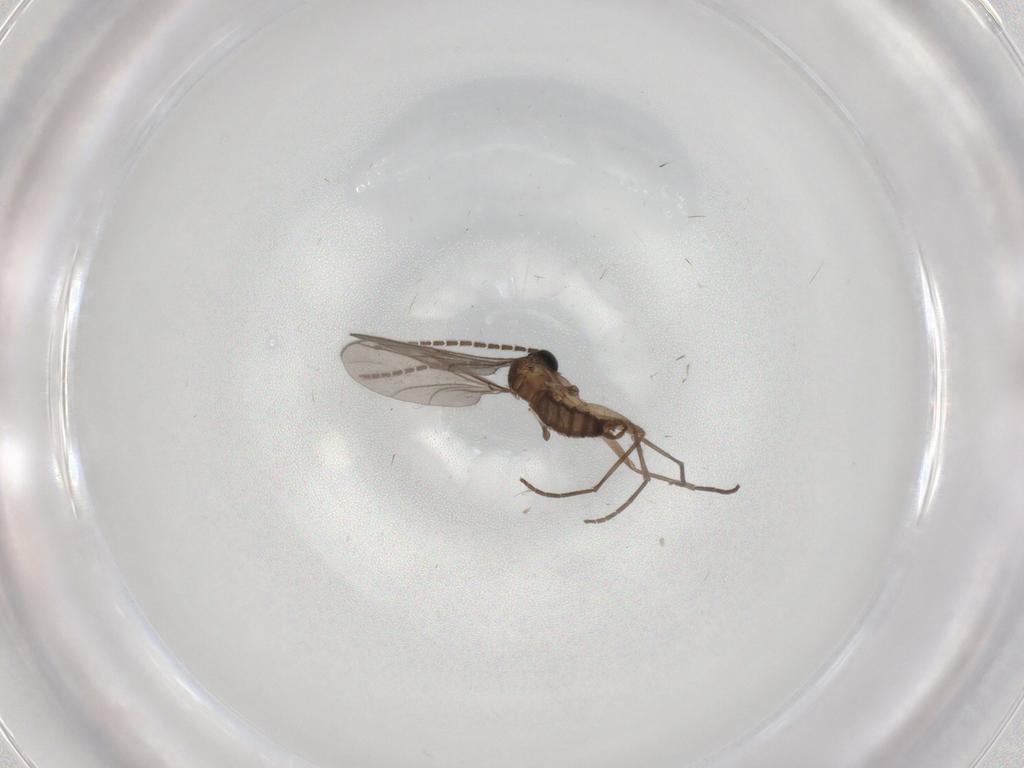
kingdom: Animalia
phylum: Arthropoda
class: Insecta
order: Diptera
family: Sciaridae
